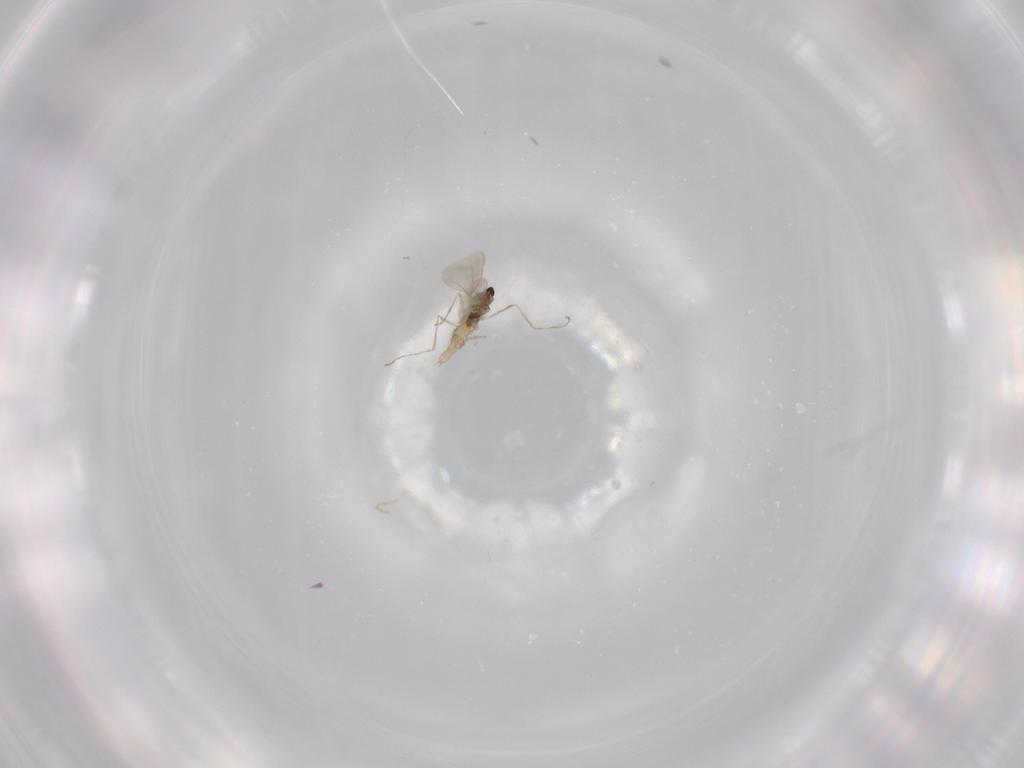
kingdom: Animalia
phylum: Arthropoda
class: Insecta
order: Diptera
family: Cecidomyiidae
